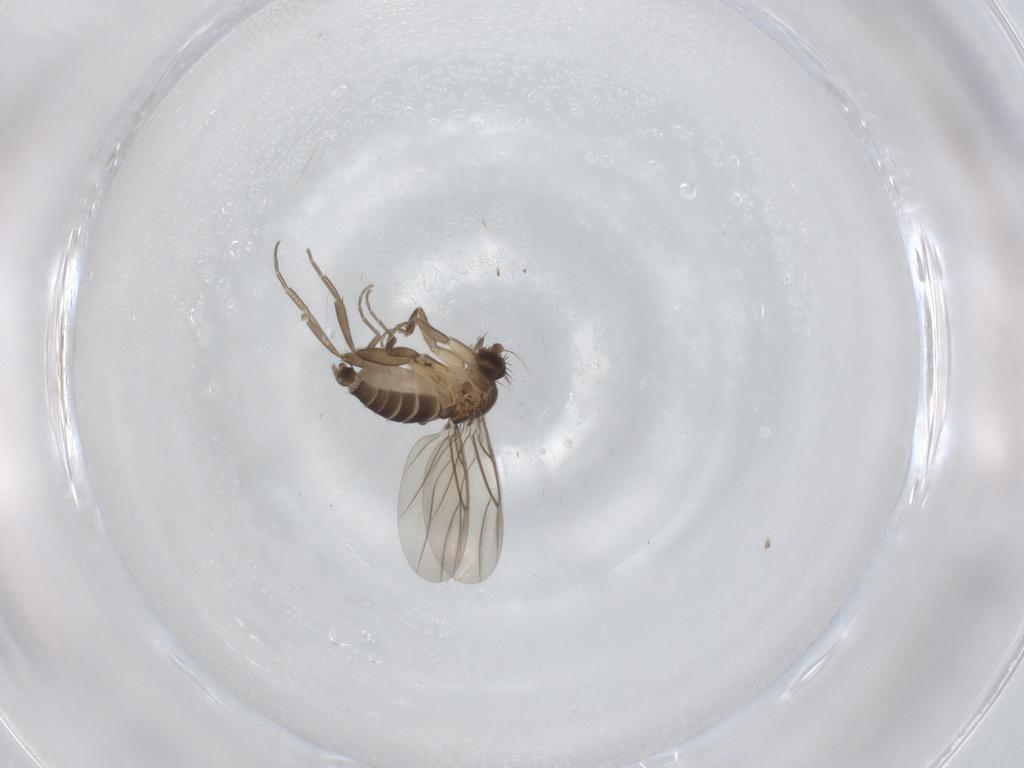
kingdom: Animalia
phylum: Arthropoda
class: Insecta
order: Diptera
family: Phoridae
